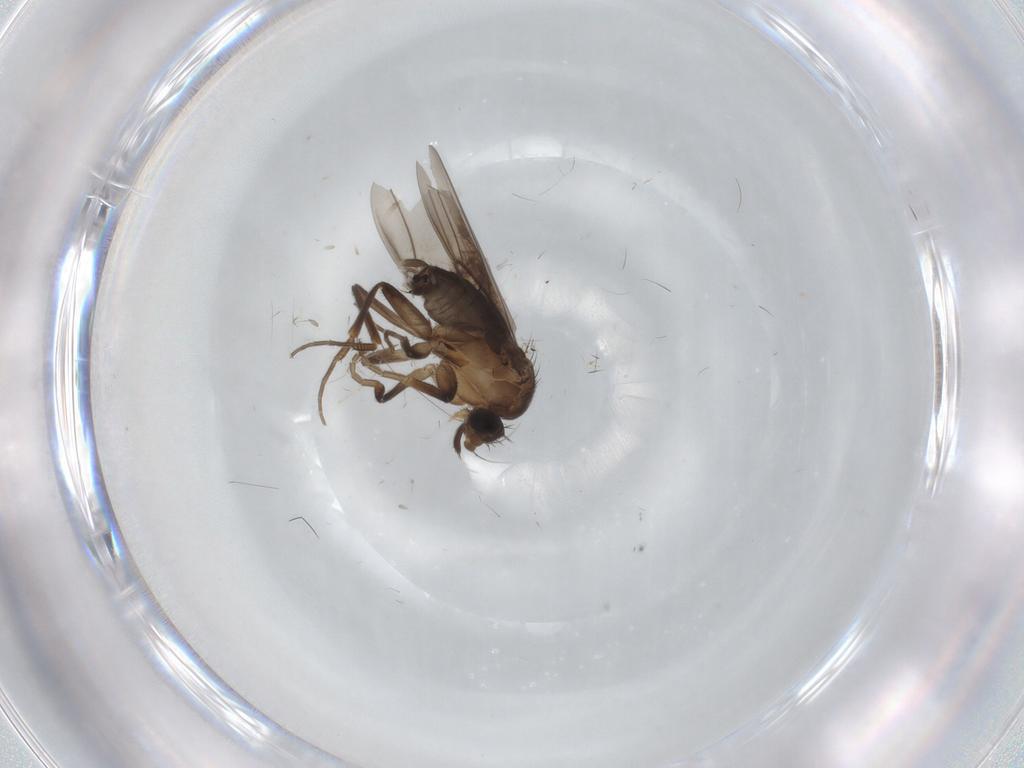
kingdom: Animalia
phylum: Arthropoda
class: Insecta
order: Diptera
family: Phoridae
